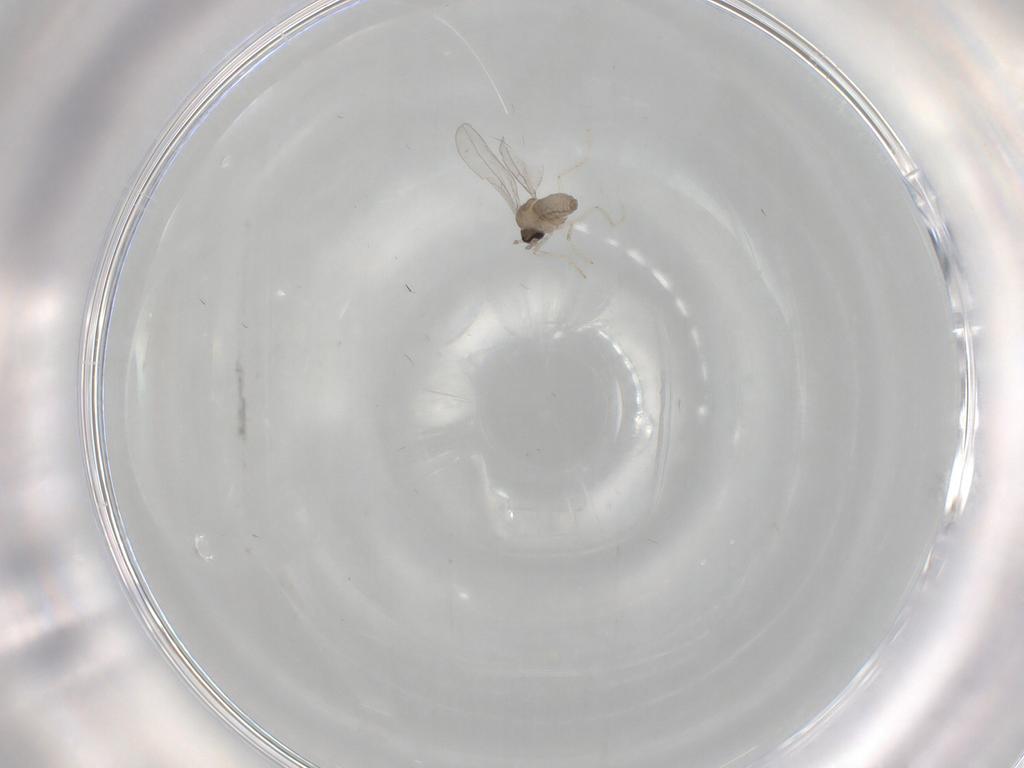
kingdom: Animalia
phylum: Arthropoda
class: Insecta
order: Diptera
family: Cecidomyiidae
